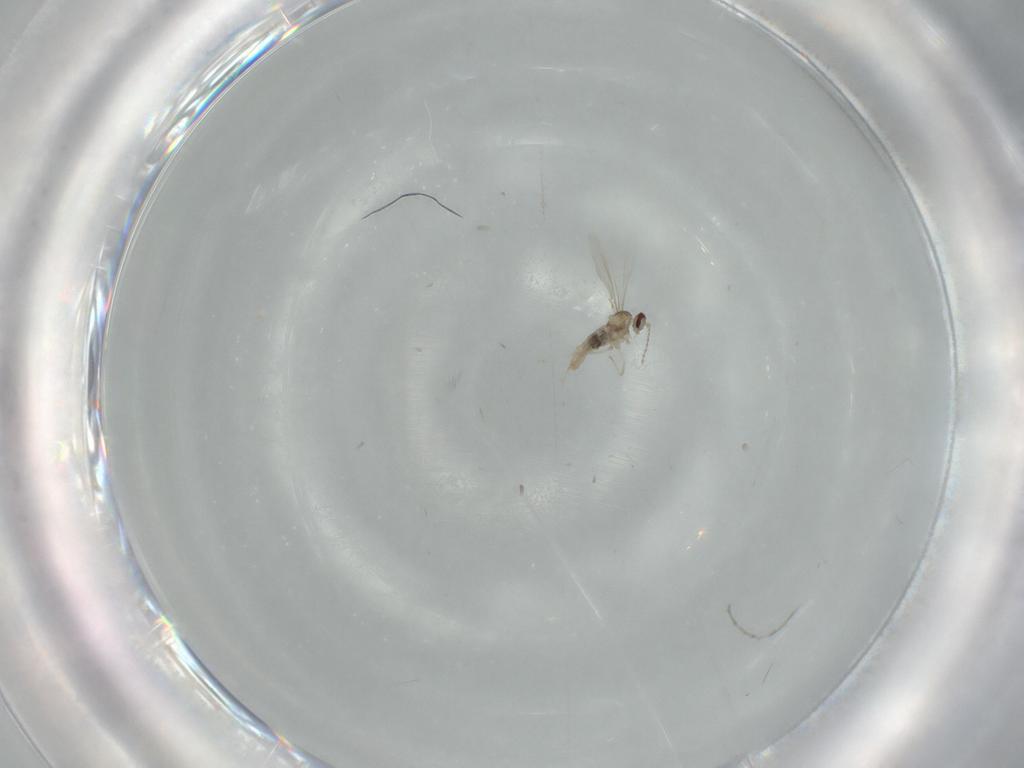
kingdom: Animalia
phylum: Arthropoda
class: Insecta
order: Diptera
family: Cecidomyiidae
